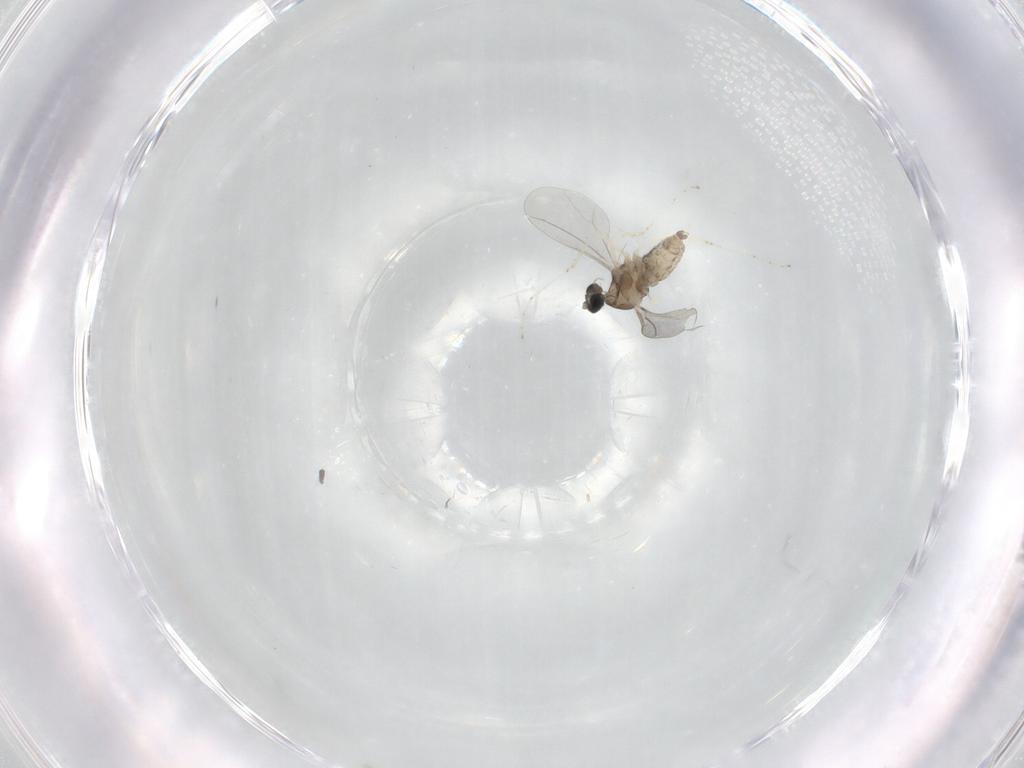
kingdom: Animalia
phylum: Arthropoda
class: Insecta
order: Diptera
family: Cecidomyiidae
